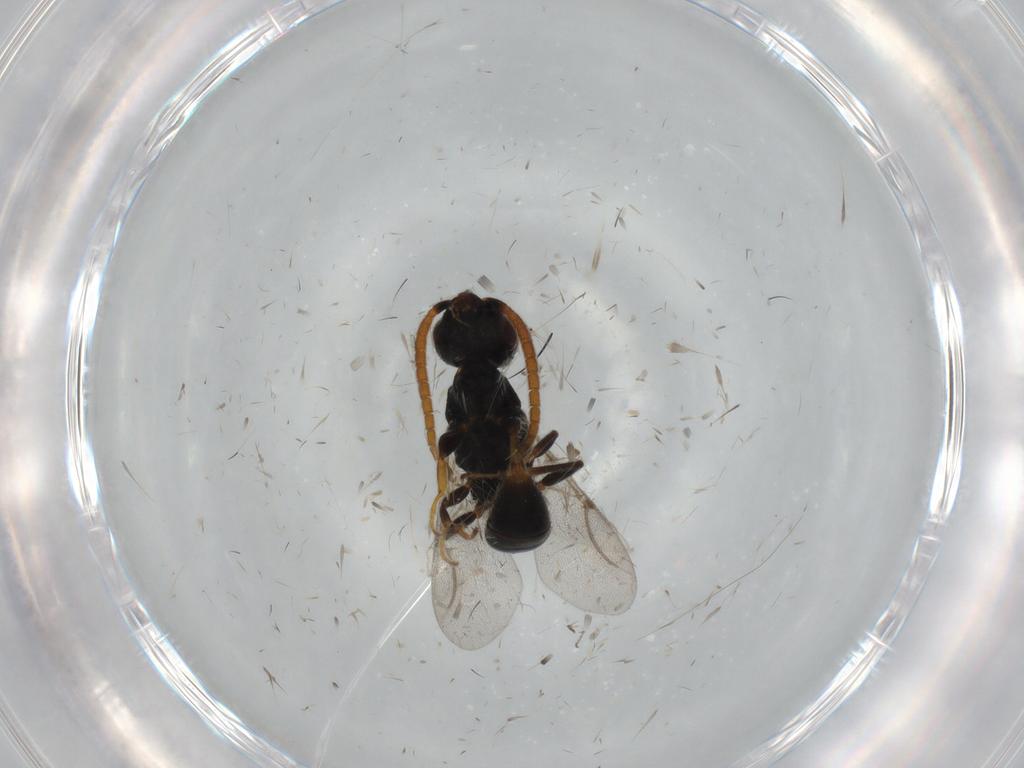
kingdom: Animalia
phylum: Arthropoda
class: Insecta
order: Hymenoptera
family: Bethylidae
